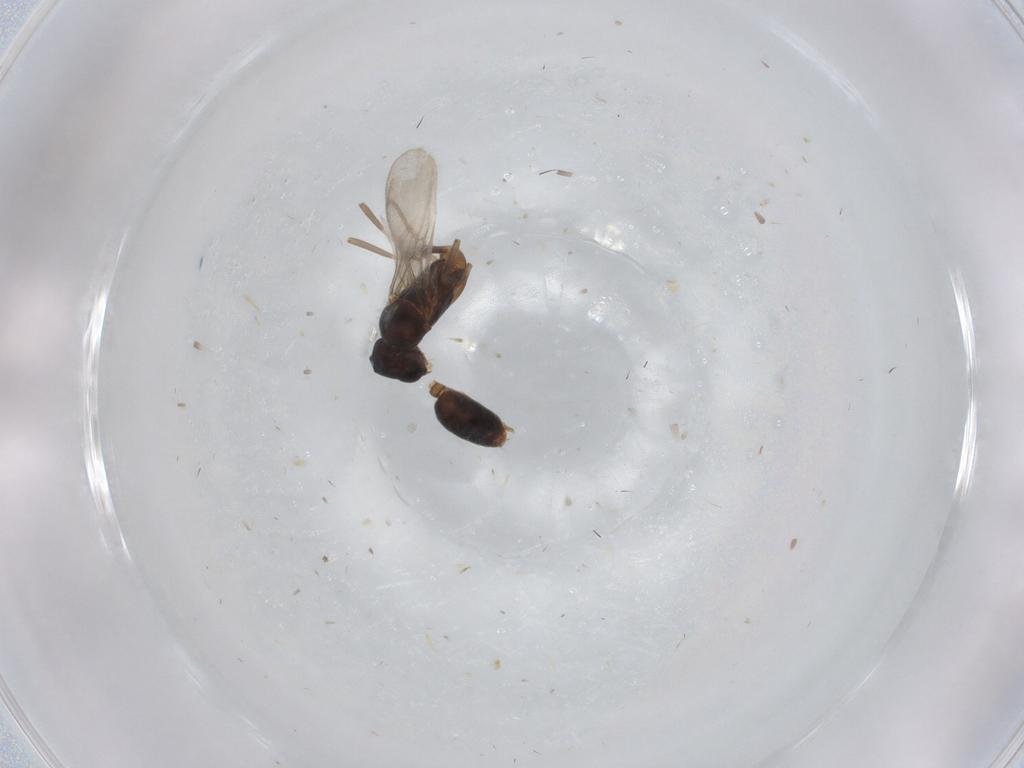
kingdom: Animalia
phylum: Arthropoda
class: Insecta
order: Hymenoptera
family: Formicidae
